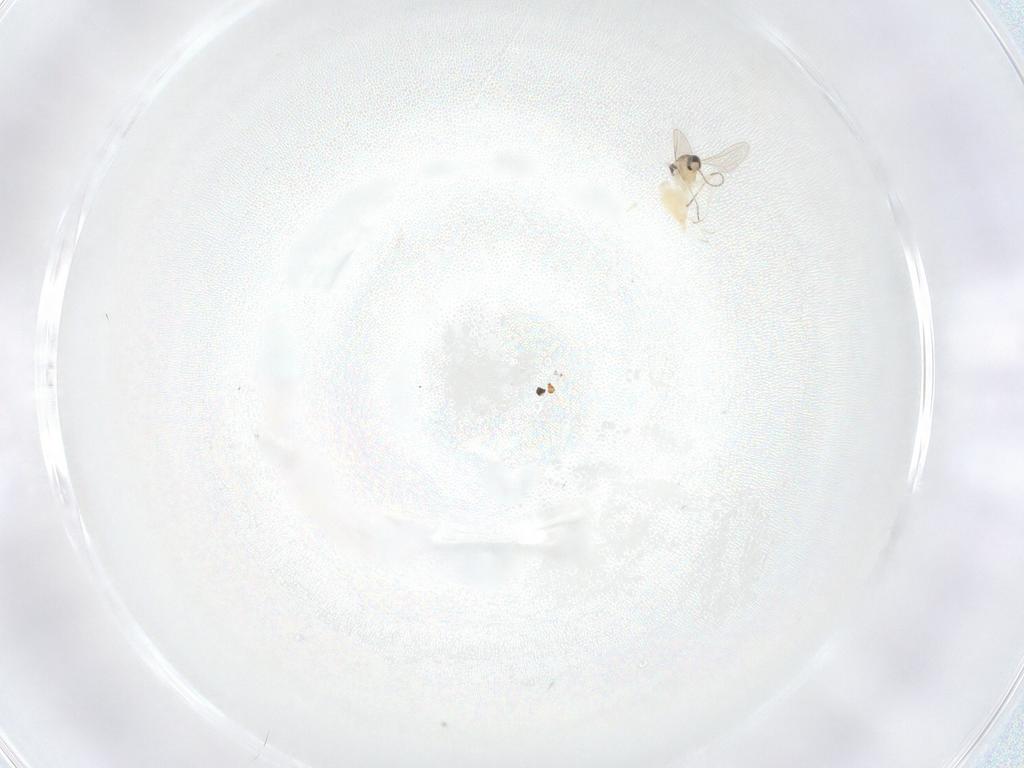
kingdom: Animalia
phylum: Arthropoda
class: Insecta
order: Diptera
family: Cecidomyiidae
